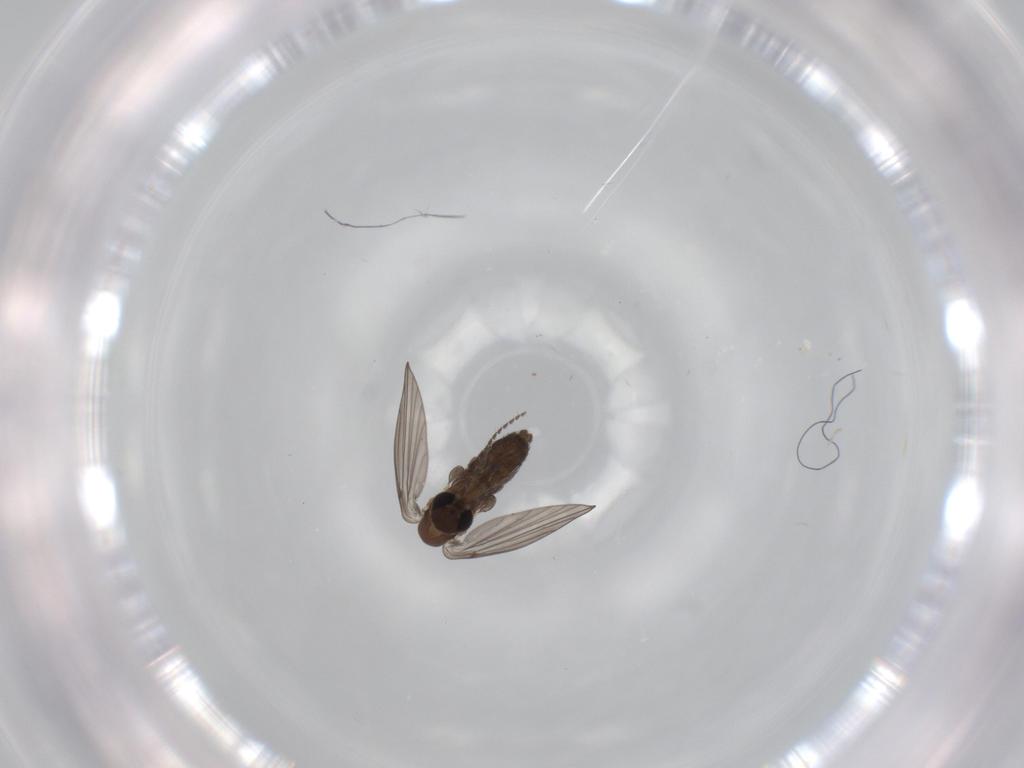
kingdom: Animalia
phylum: Arthropoda
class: Insecta
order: Diptera
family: Psychodidae
